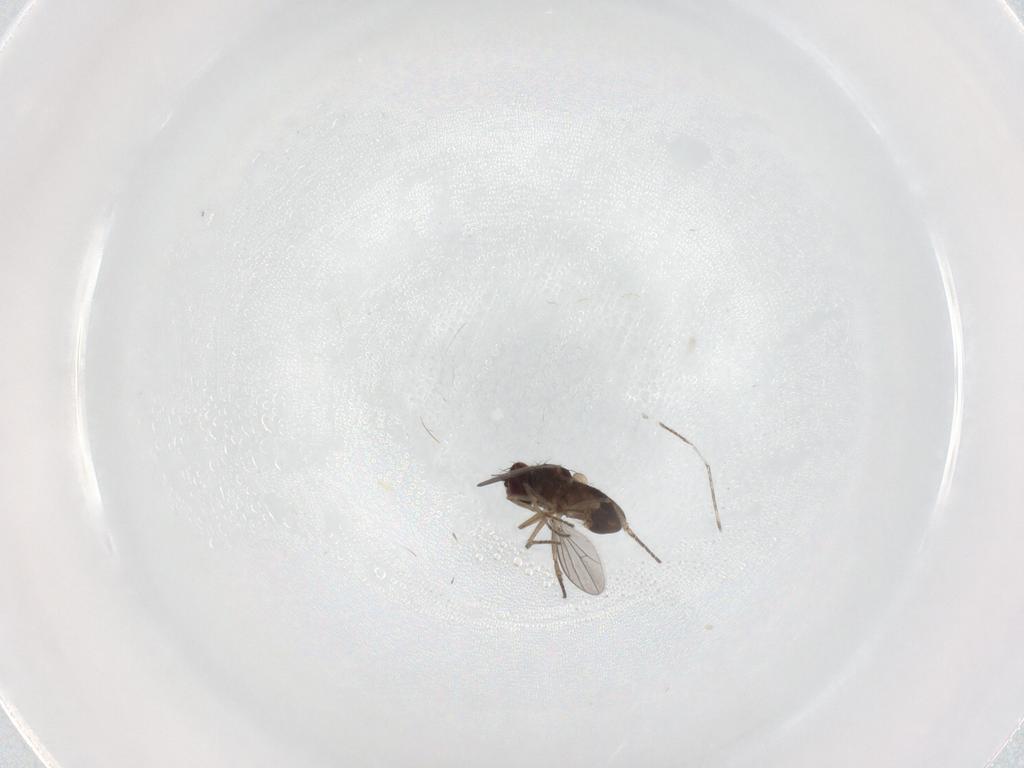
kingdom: Animalia
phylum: Arthropoda
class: Insecta
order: Diptera
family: Dolichopodidae
